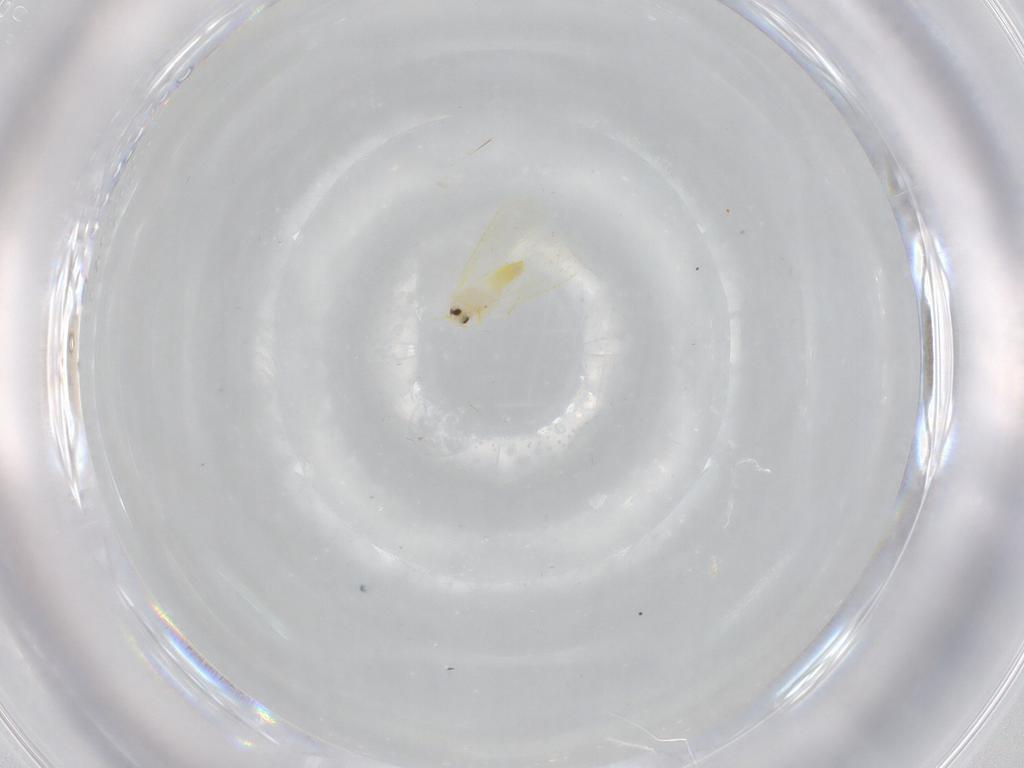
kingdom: Animalia
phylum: Arthropoda
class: Insecta
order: Hemiptera
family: Aleyrodidae
